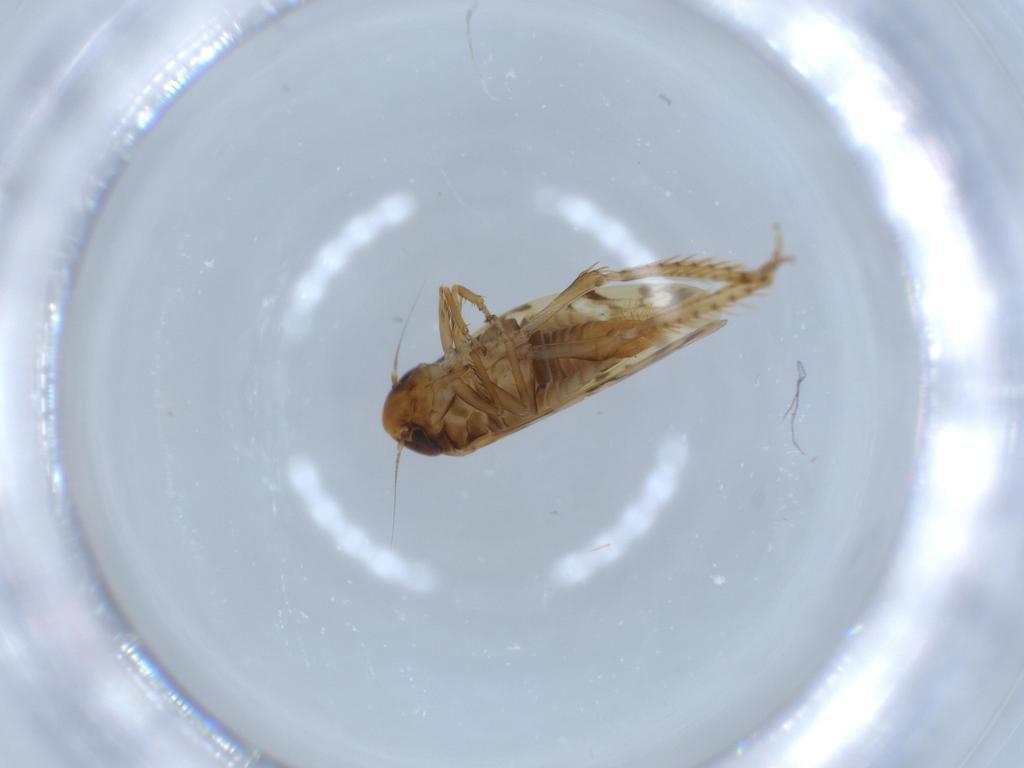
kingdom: Animalia
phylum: Arthropoda
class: Insecta
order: Hemiptera
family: Cicadellidae
